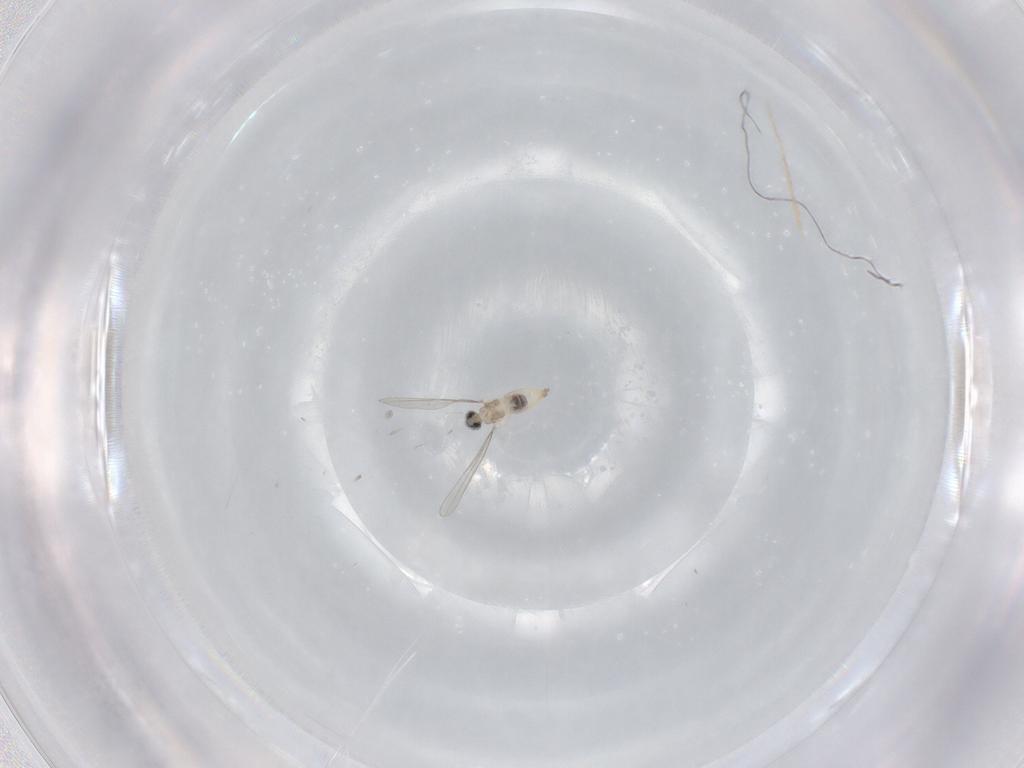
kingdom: Animalia
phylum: Arthropoda
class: Insecta
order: Diptera
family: Cecidomyiidae
